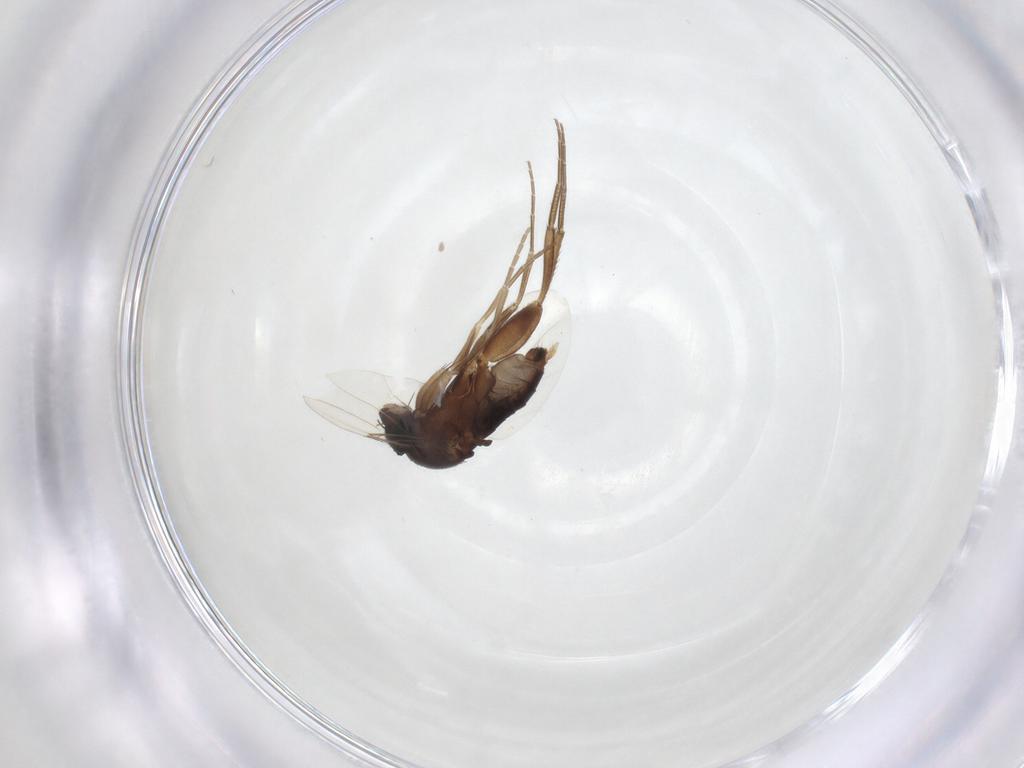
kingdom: Animalia
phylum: Arthropoda
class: Insecta
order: Diptera
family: Phoridae
